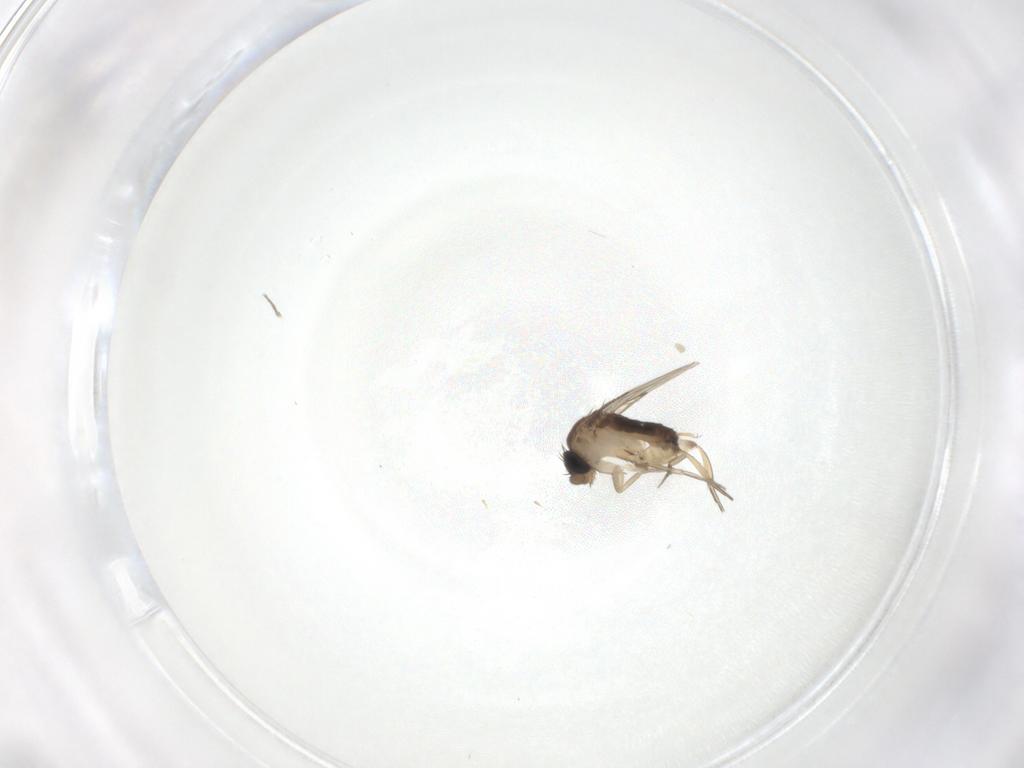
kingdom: Animalia
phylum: Arthropoda
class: Insecta
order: Diptera
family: Phoridae
